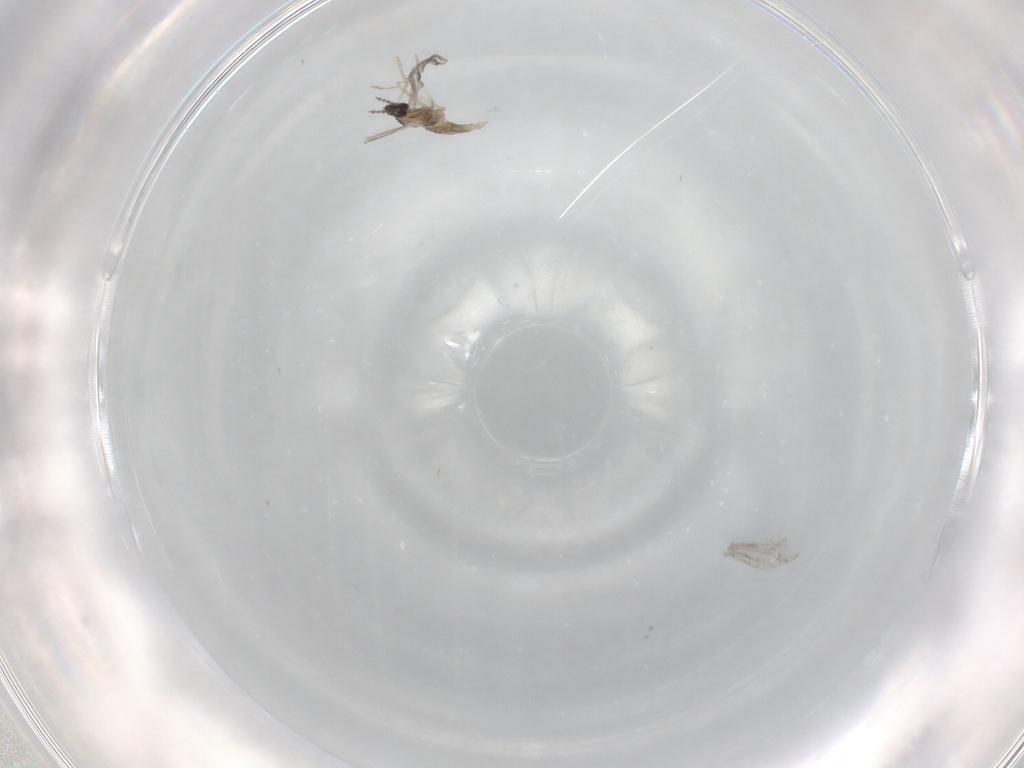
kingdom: Animalia
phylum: Arthropoda
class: Insecta
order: Diptera
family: Cecidomyiidae
